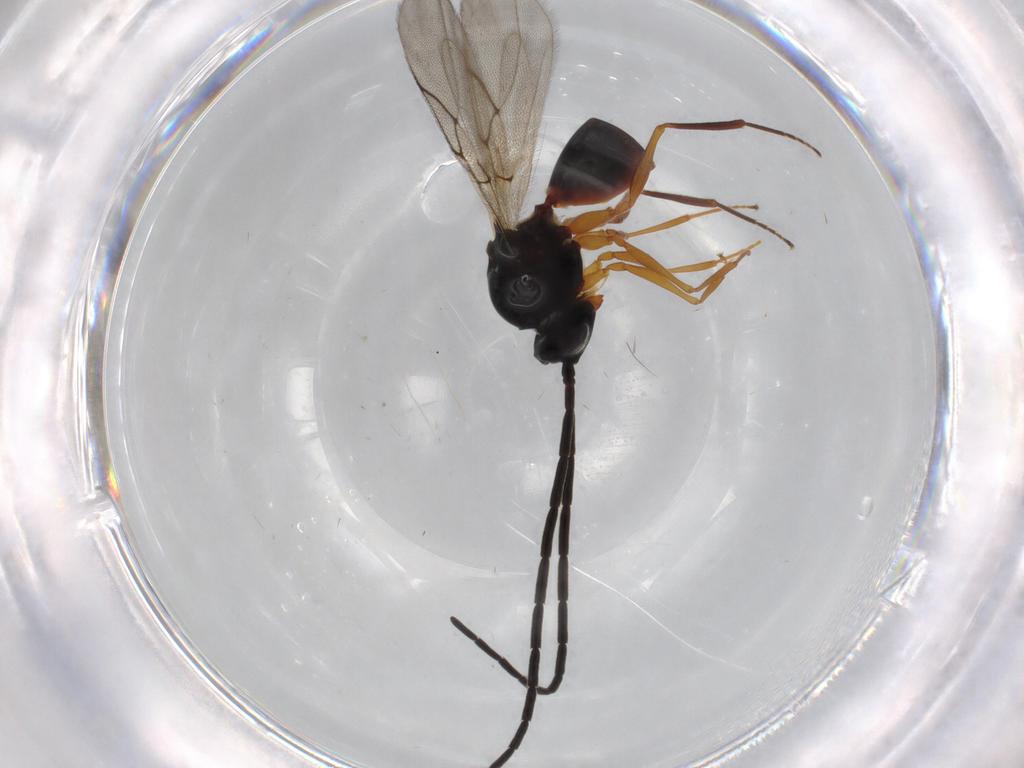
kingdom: Animalia
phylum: Arthropoda
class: Insecta
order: Hymenoptera
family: Figitidae
